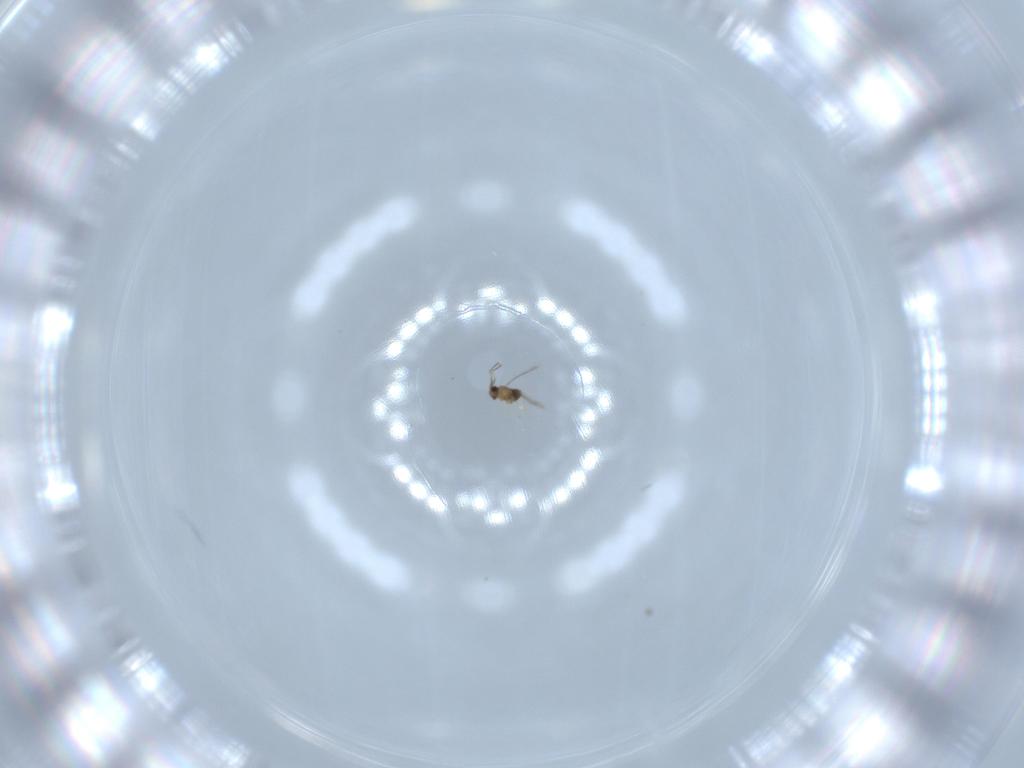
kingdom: Animalia
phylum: Arthropoda
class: Insecta
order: Hymenoptera
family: Mymaridae
